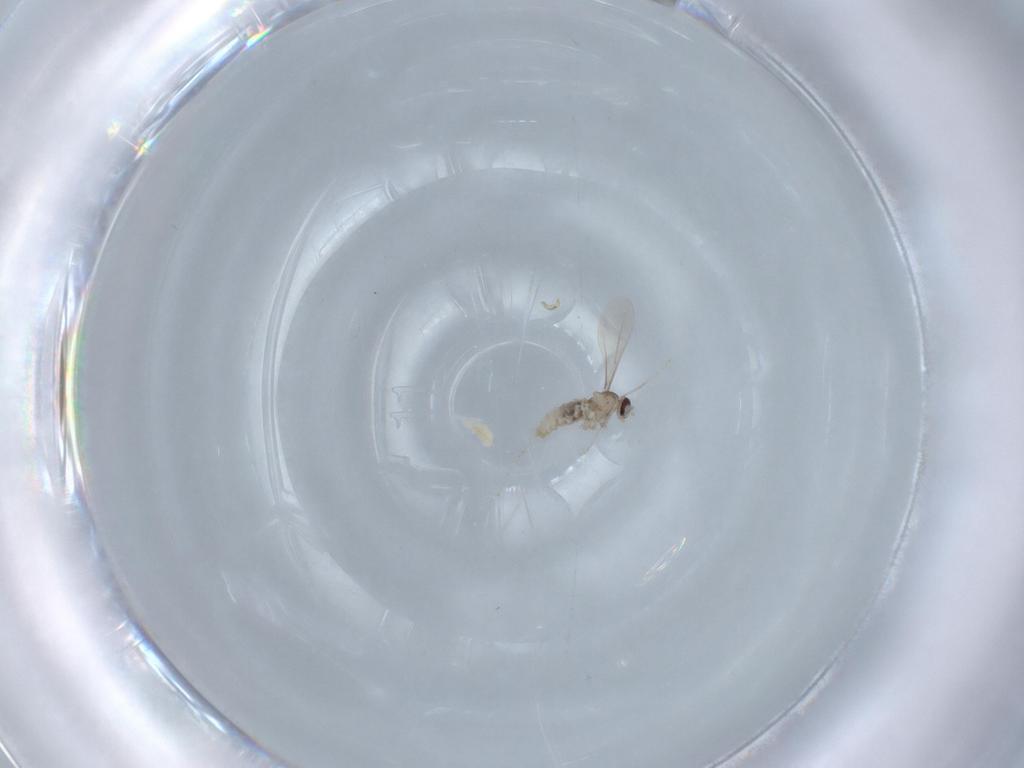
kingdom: Animalia
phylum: Arthropoda
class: Insecta
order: Diptera
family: Cecidomyiidae
